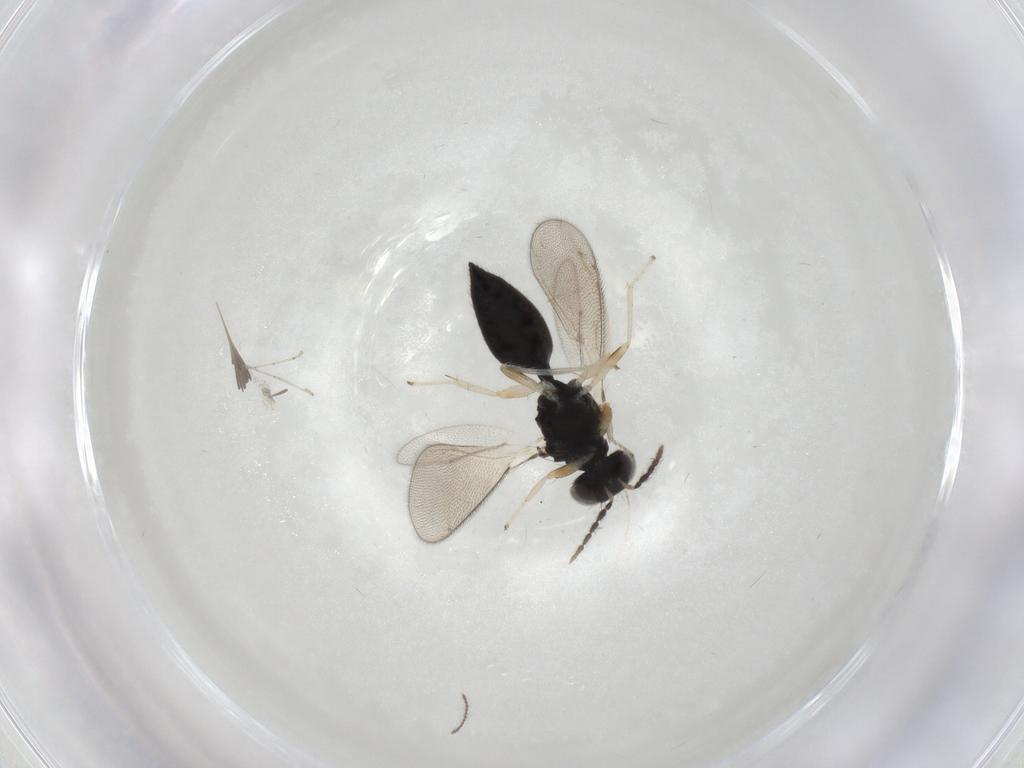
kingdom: Animalia
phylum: Arthropoda
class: Insecta
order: Hymenoptera
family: Eulophidae
